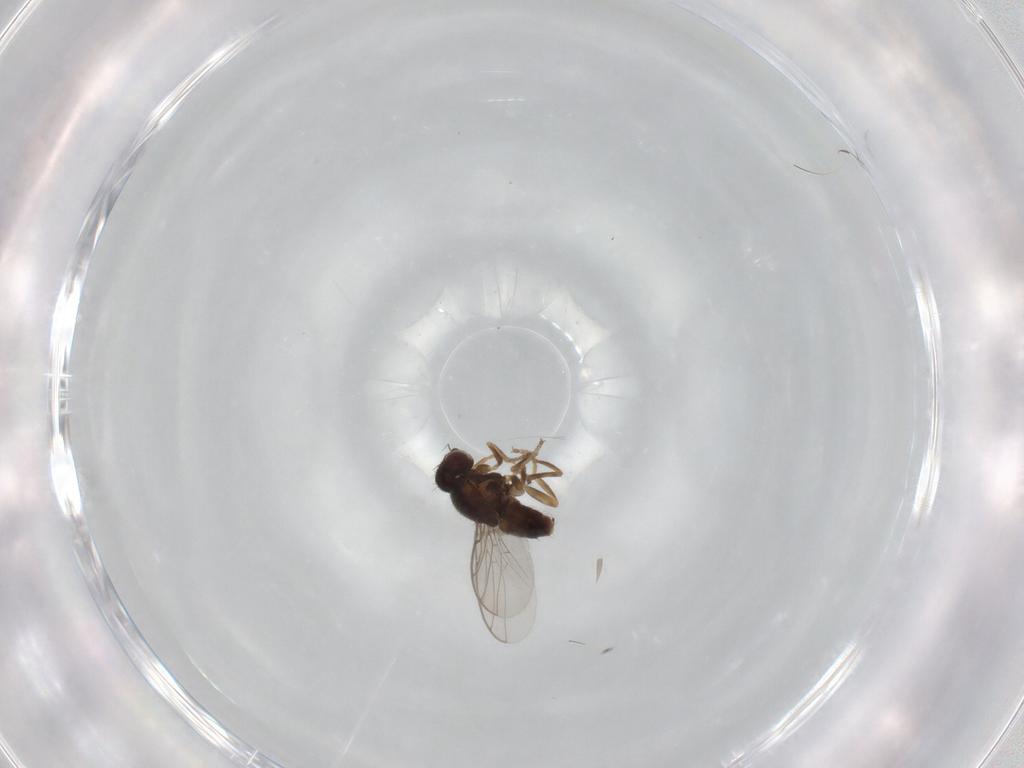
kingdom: Animalia
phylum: Arthropoda
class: Insecta
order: Diptera
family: Chloropidae
